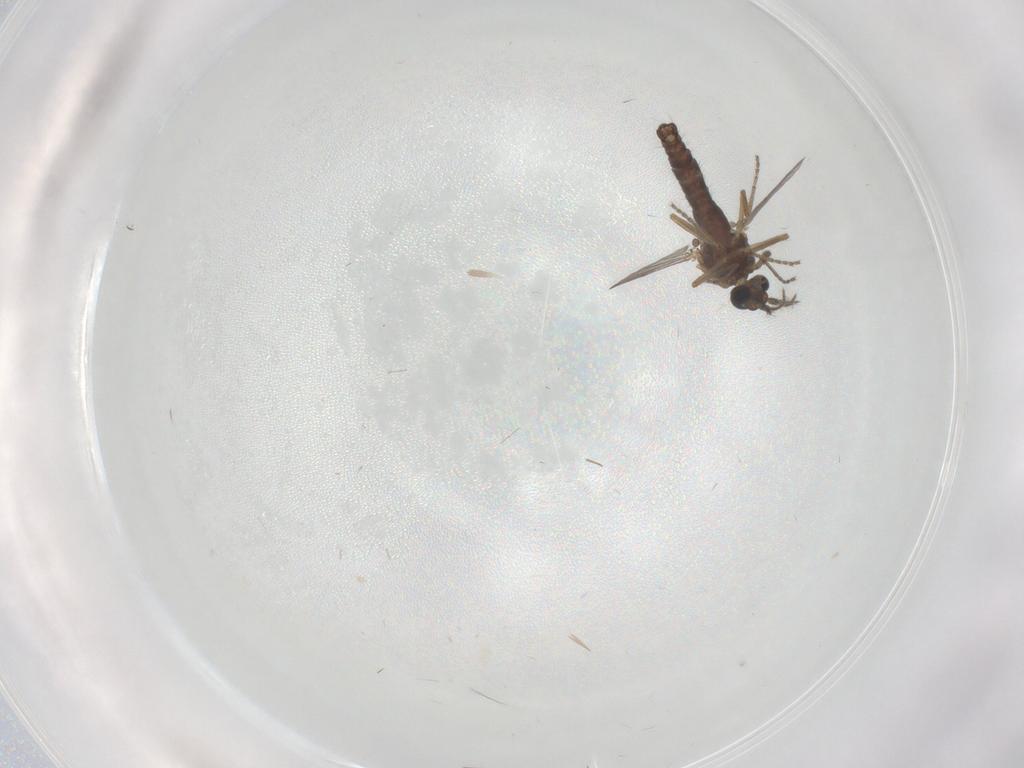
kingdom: Animalia
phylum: Arthropoda
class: Insecta
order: Diptera
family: Ceratopogonidae
